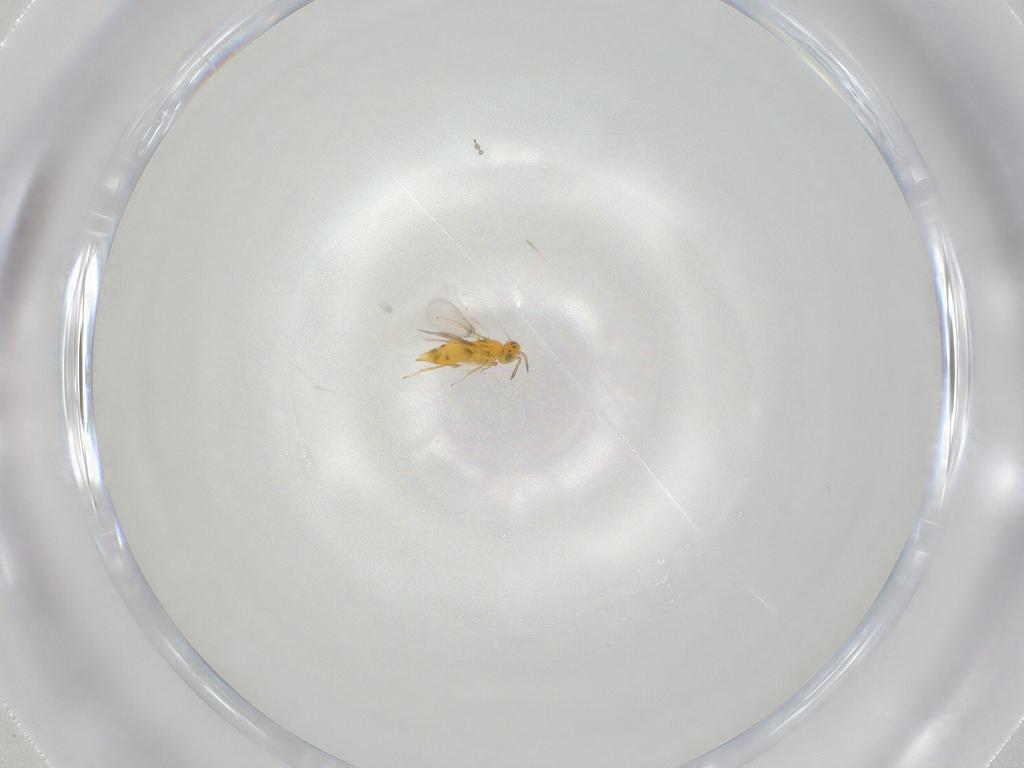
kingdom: Animalia
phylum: Arthropoda
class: Insecta
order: Hymenoptera
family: Aphelinidae
